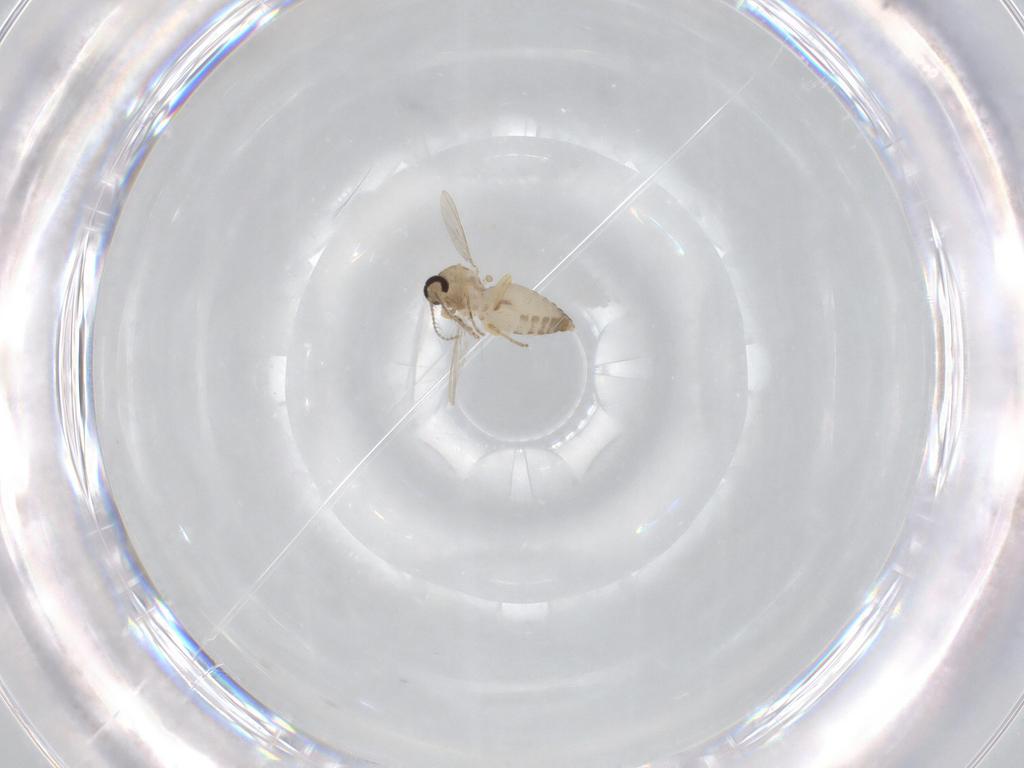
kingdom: Animalia
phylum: Arthropoda
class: Insecta
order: Diptera
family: Ceratopogonidae
